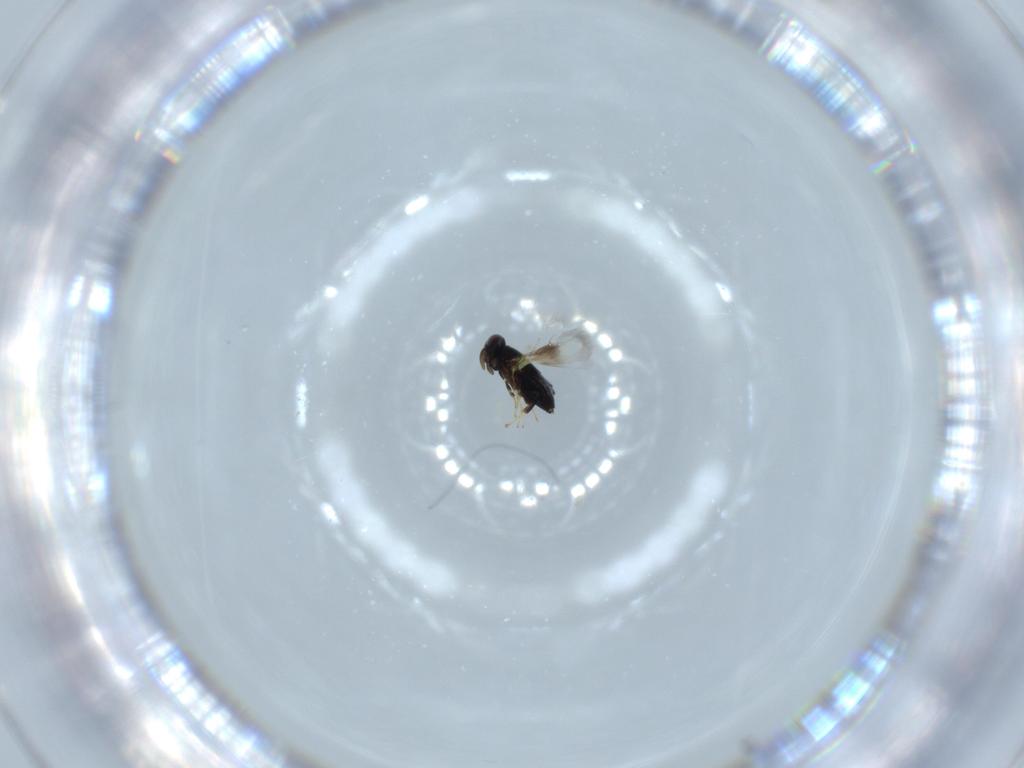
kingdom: Animalia
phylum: Arthropoda
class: Insecta
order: Hymenoptera
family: Signiphoridae
